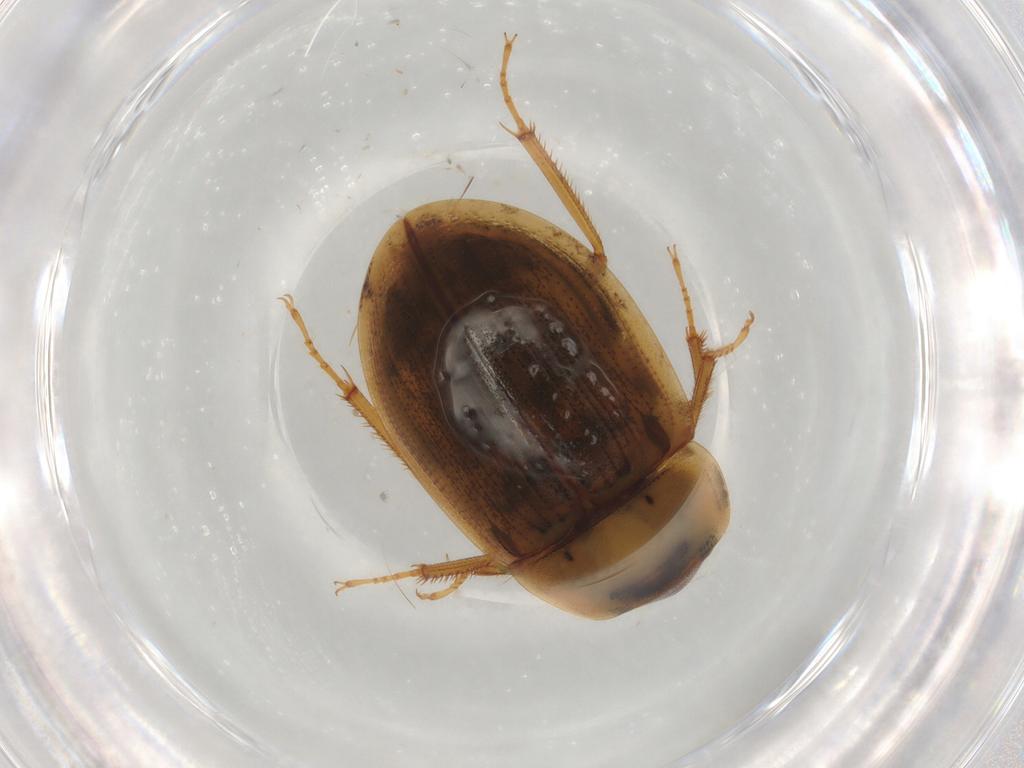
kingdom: Animalia
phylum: Arthropoda
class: Insecta
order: Coleoptera
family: Hydrophilidae
